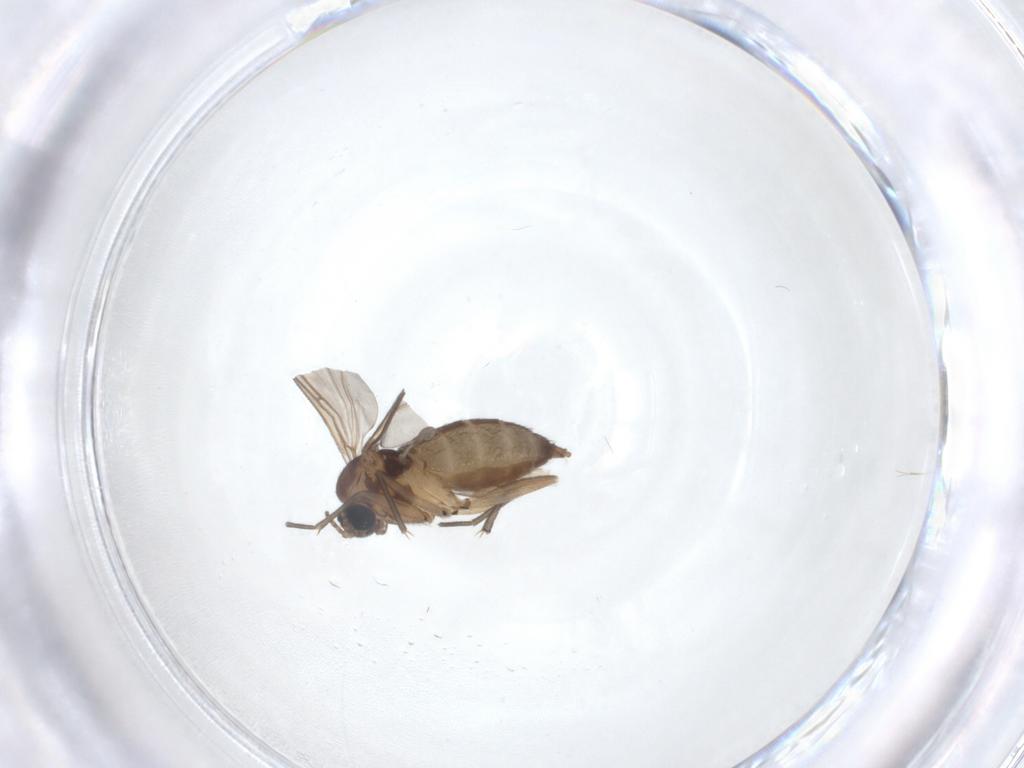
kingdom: Animalia
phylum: Arthropoda
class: Insecta
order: Diptera
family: Sciaridae
